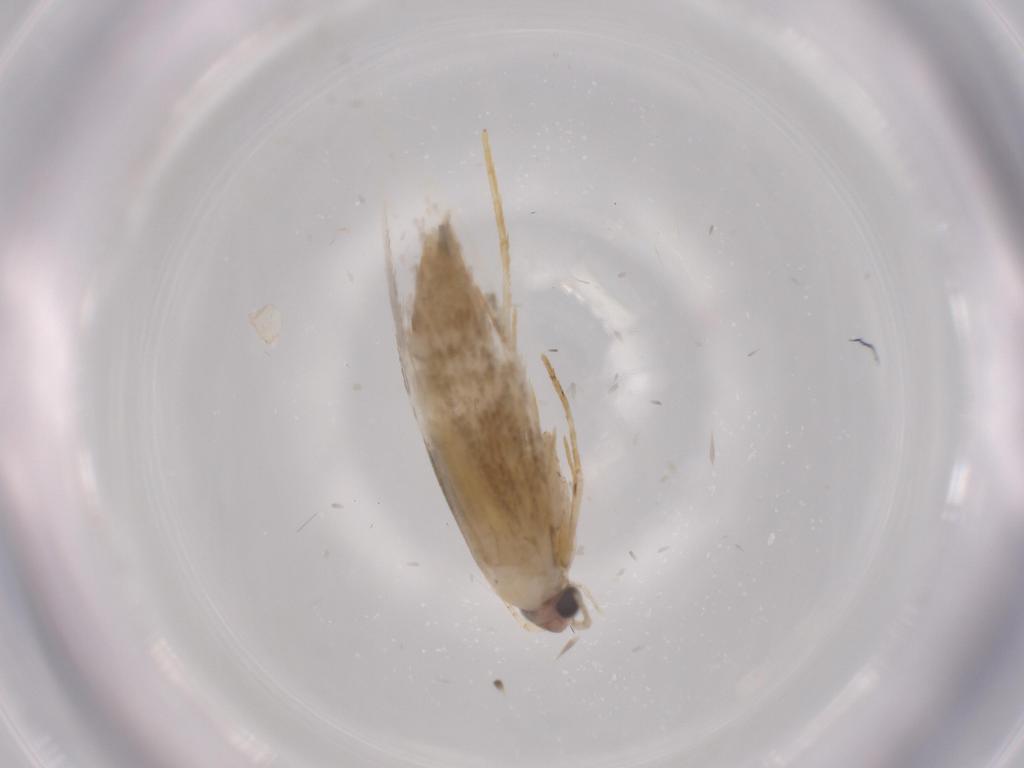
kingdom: Animalia
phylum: Arthropoda
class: Insecta
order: Lepidoptera
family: Tineidae
